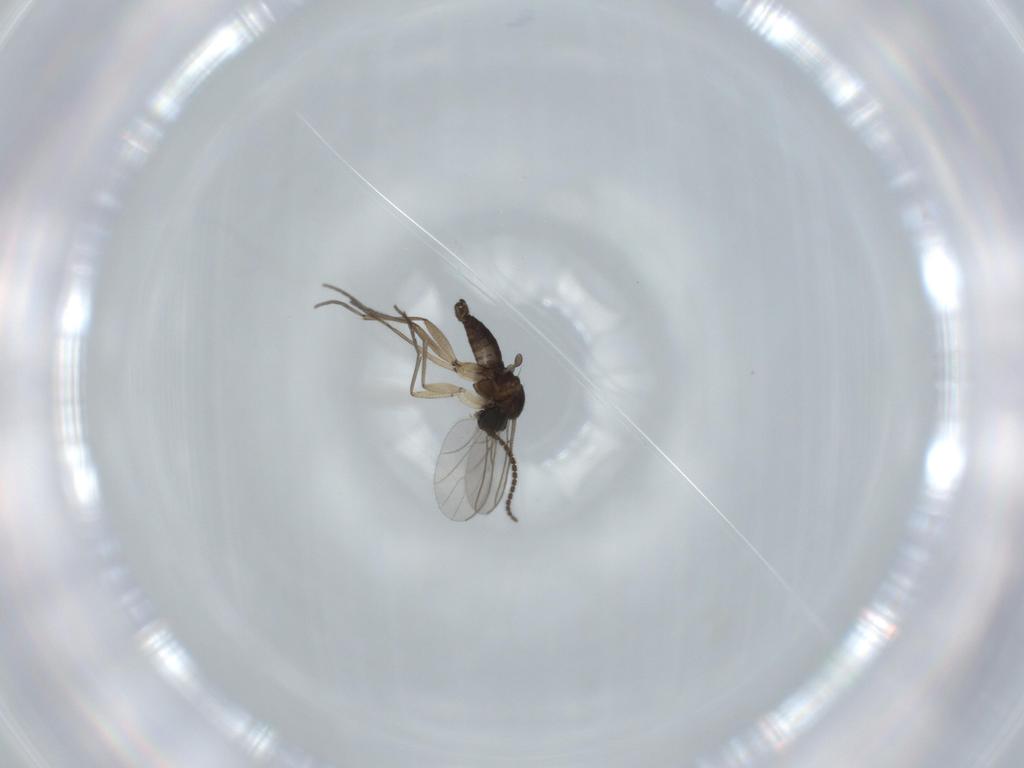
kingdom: Animalia
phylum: Arthropoda
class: Insecta
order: Diptera
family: Sciaridae
